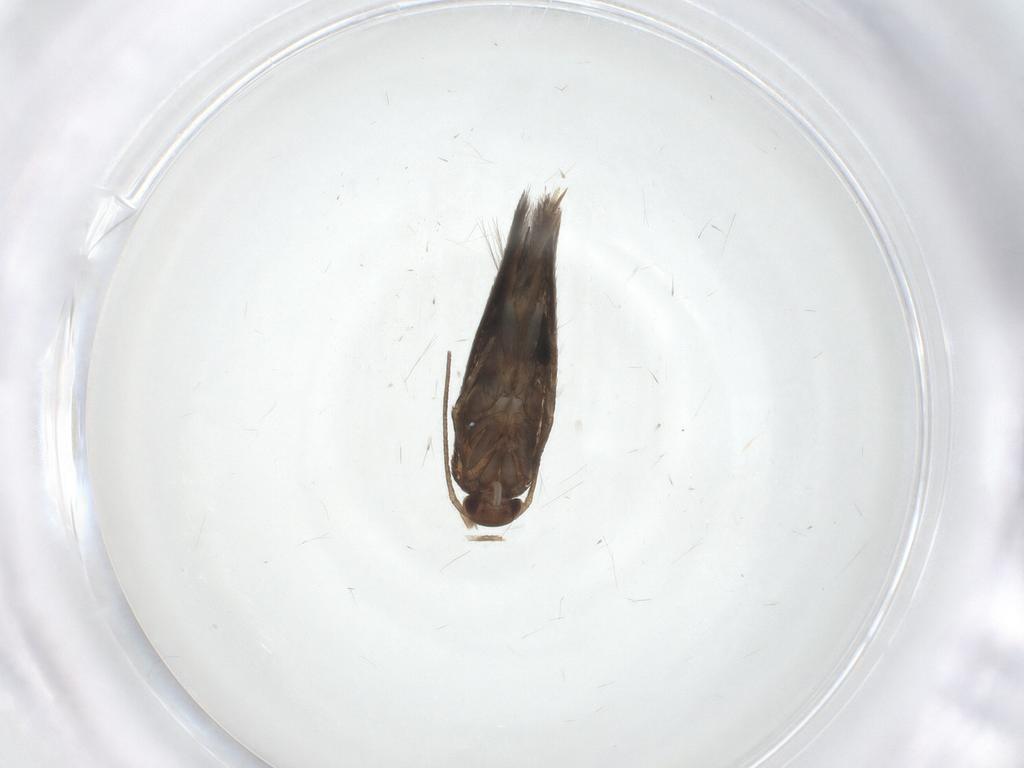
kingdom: Animalia
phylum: Arthropoda
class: Insecta
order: Lepidoptera
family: Elachistidae
